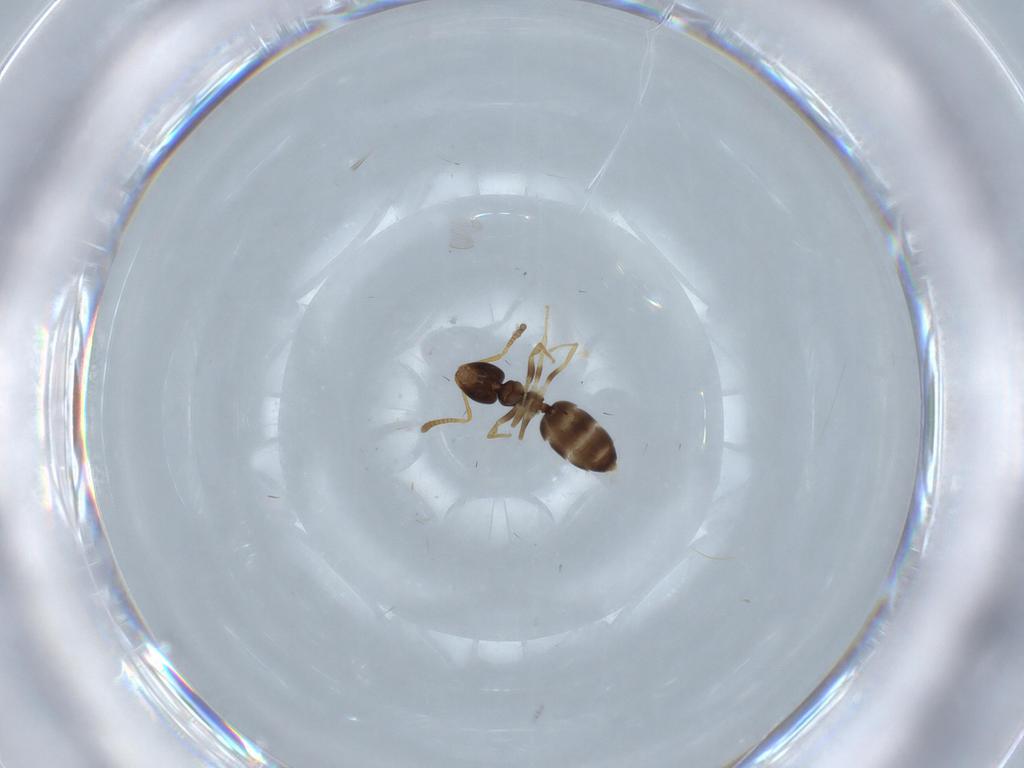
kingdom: Animalia
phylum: Arthropoda
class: Insecta
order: Hymenoptera
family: Formicidae
